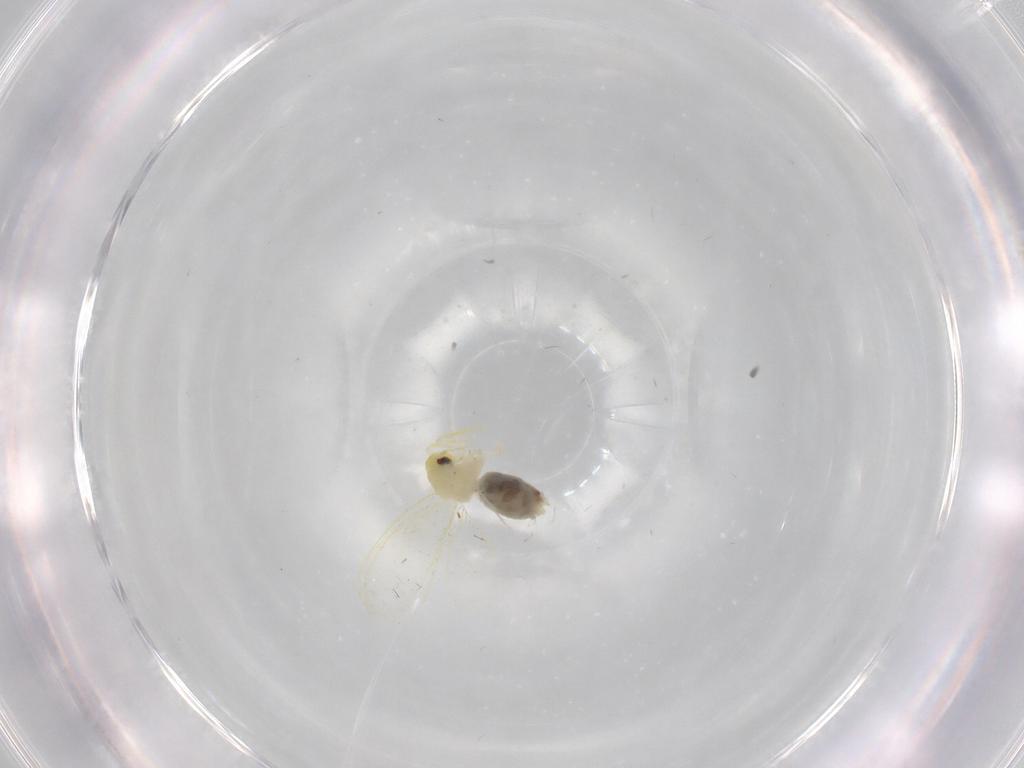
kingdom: Animalia
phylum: Arthropoda
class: Insecta
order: Hemiptera
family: Aleyrodidae
